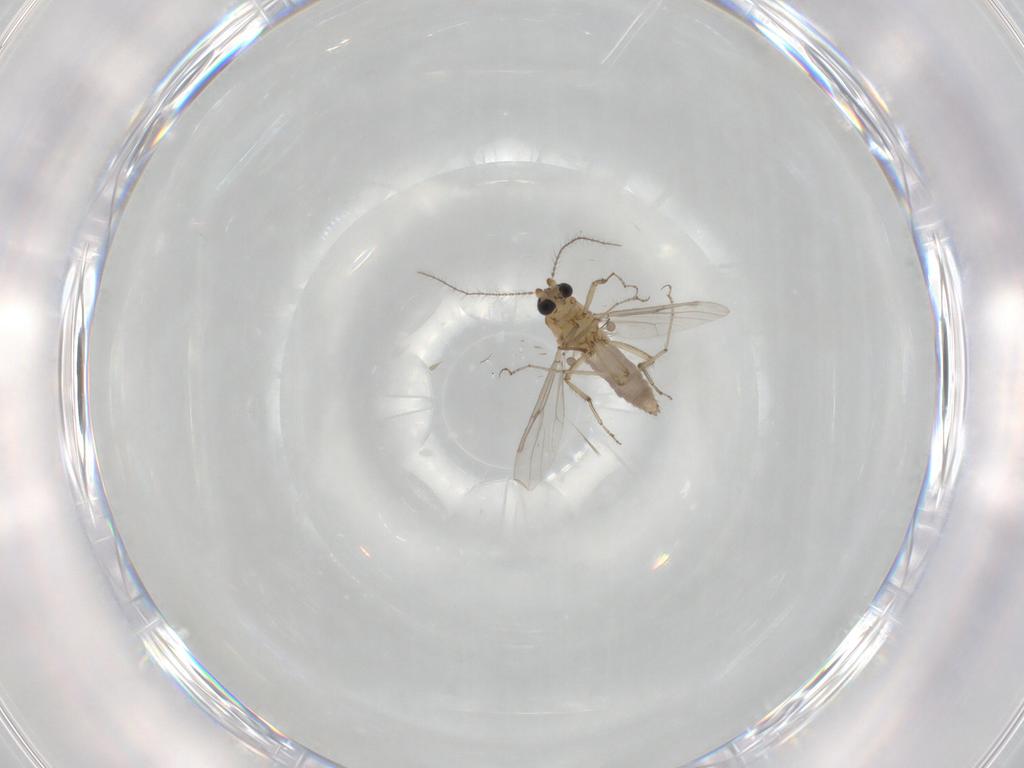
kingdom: Animalia
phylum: Arthropoda
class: Insecta
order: Diptera
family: Ceratopogonidae
